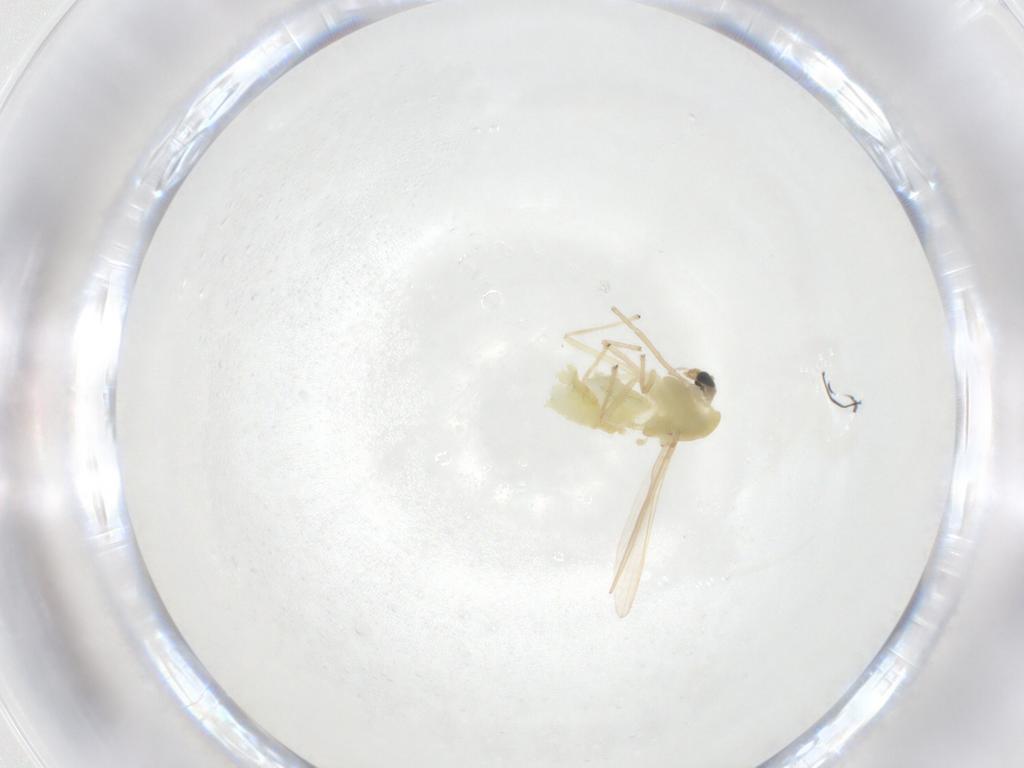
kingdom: Animalia
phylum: Arthropoda
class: Insecta
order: Diptera
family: Chironomidae
